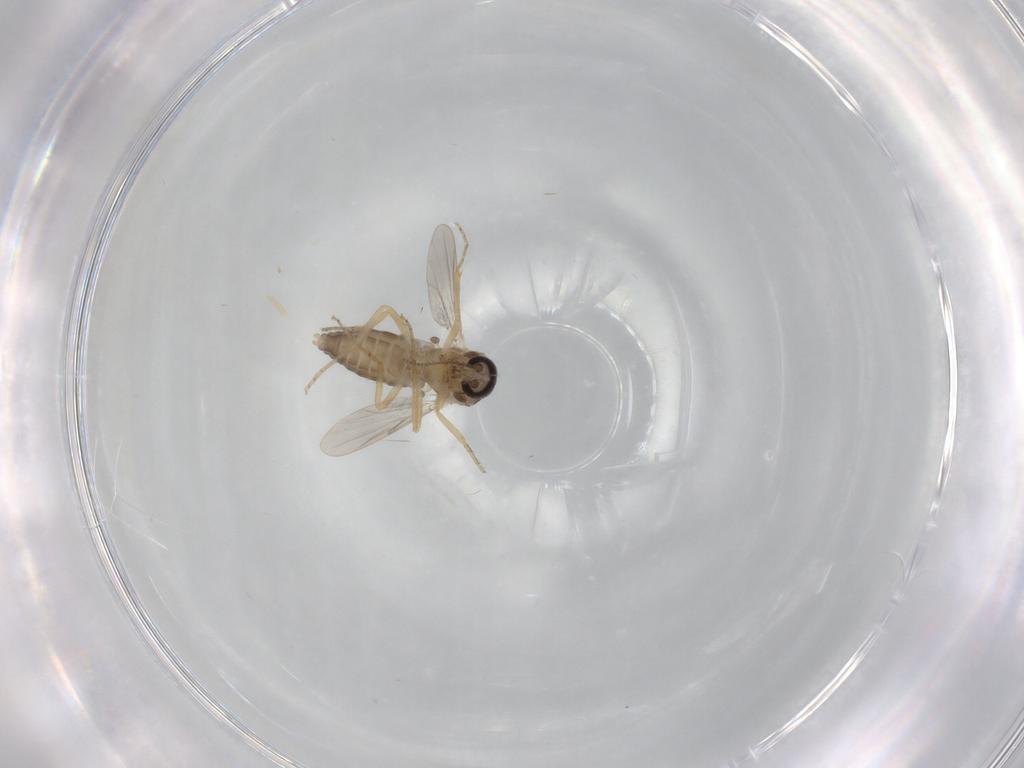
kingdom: Animalia
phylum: Arthropoda
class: Insecta
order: Diptera
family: Ceratopogonidae
